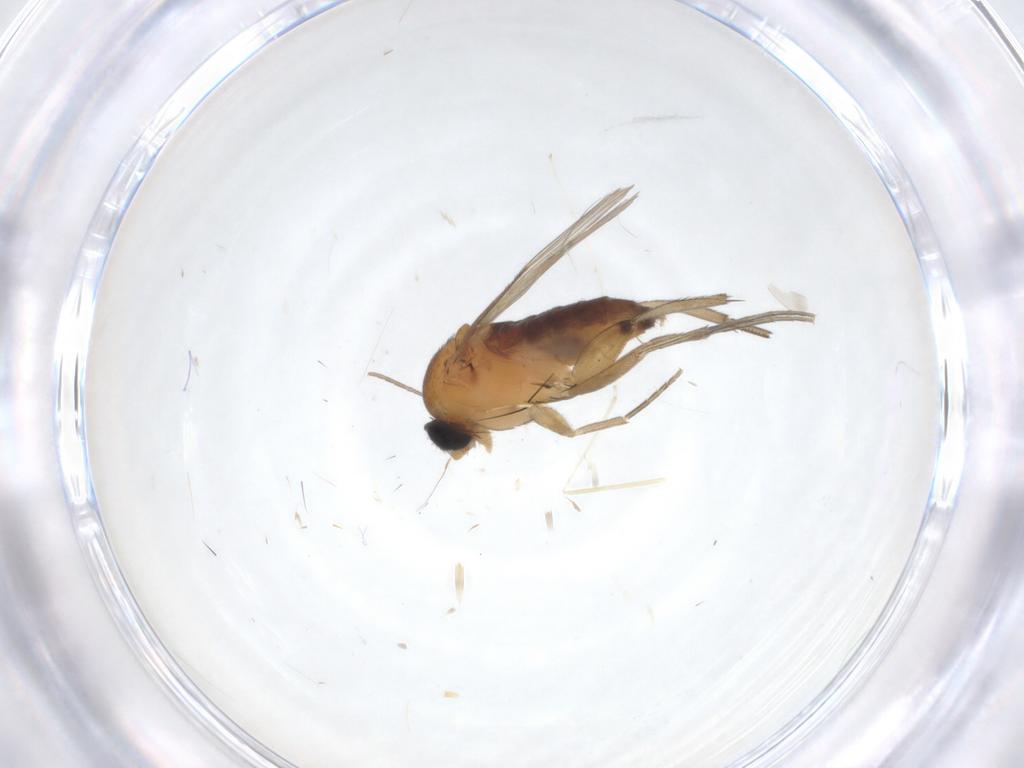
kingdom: Animalia
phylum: Arthropoda
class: Insecta
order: Diptera
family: Phoridae
